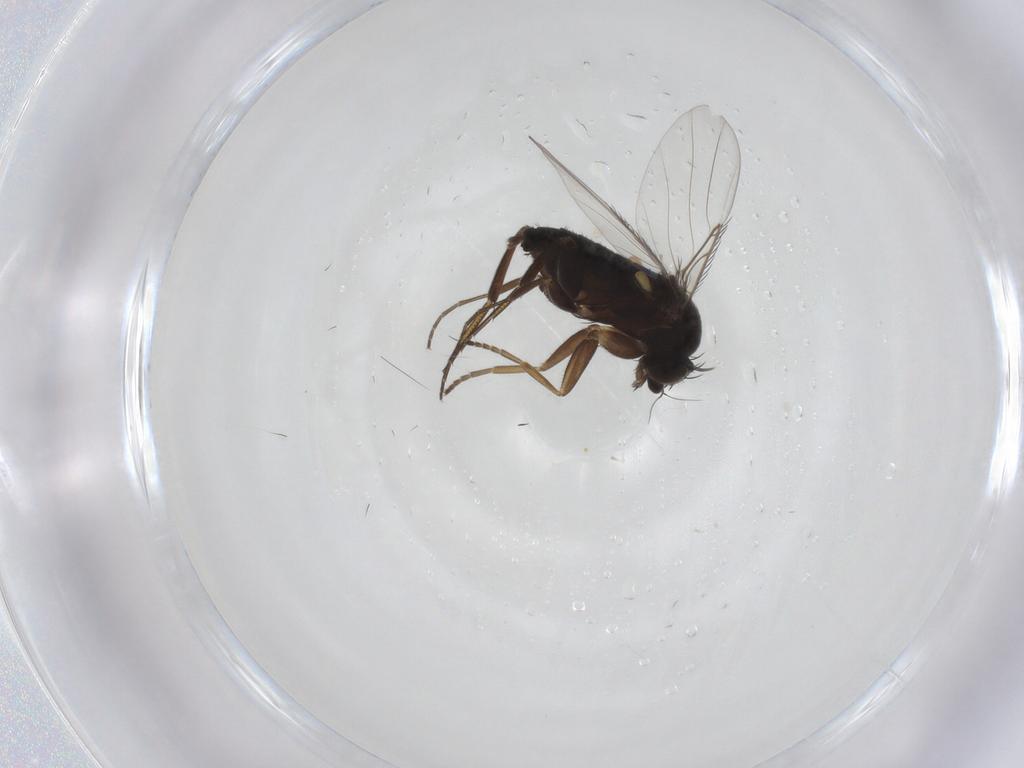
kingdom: Animalia
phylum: Arthropoda
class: Insecta
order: Diptera
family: Phoridae
